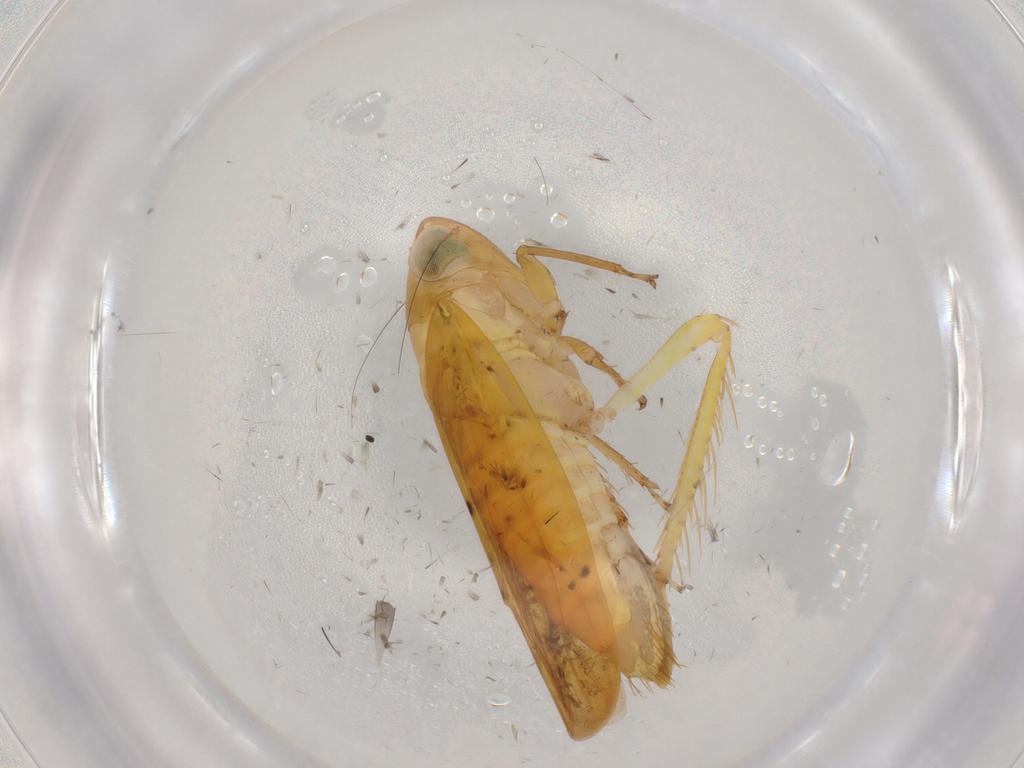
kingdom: Animalia
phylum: Arthropoda
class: Insecta
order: Hemiptera
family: Cicadellidae
